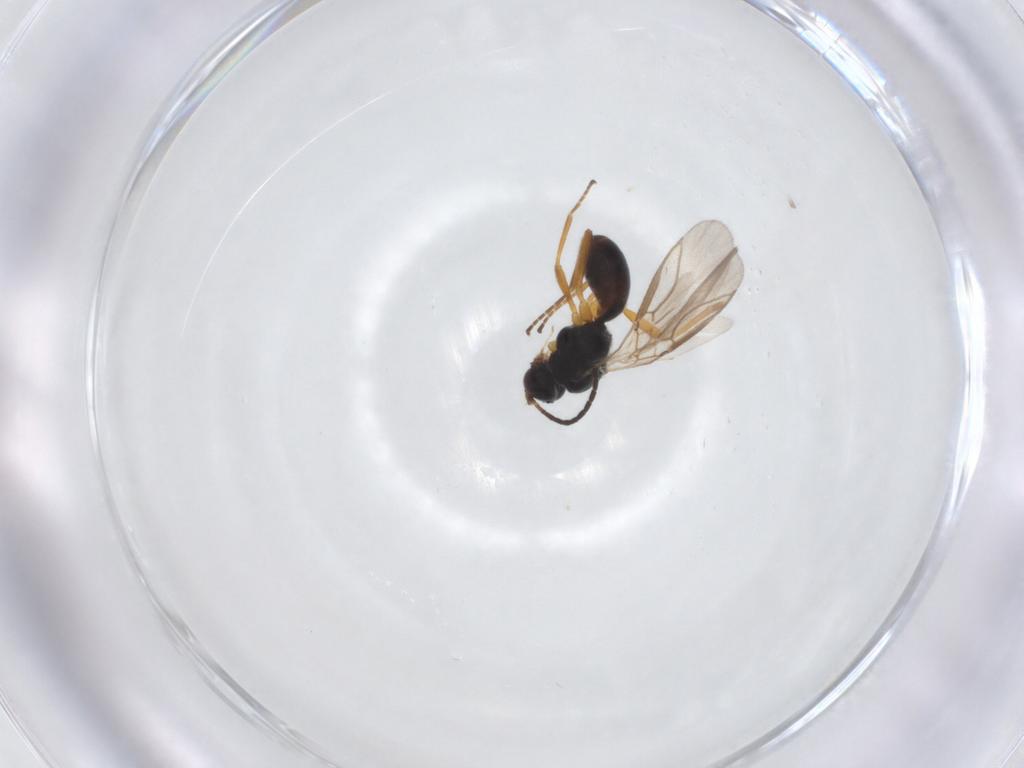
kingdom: Animalia
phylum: Arthropoda
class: Insecta
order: Hymenoptera
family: Braconidae
